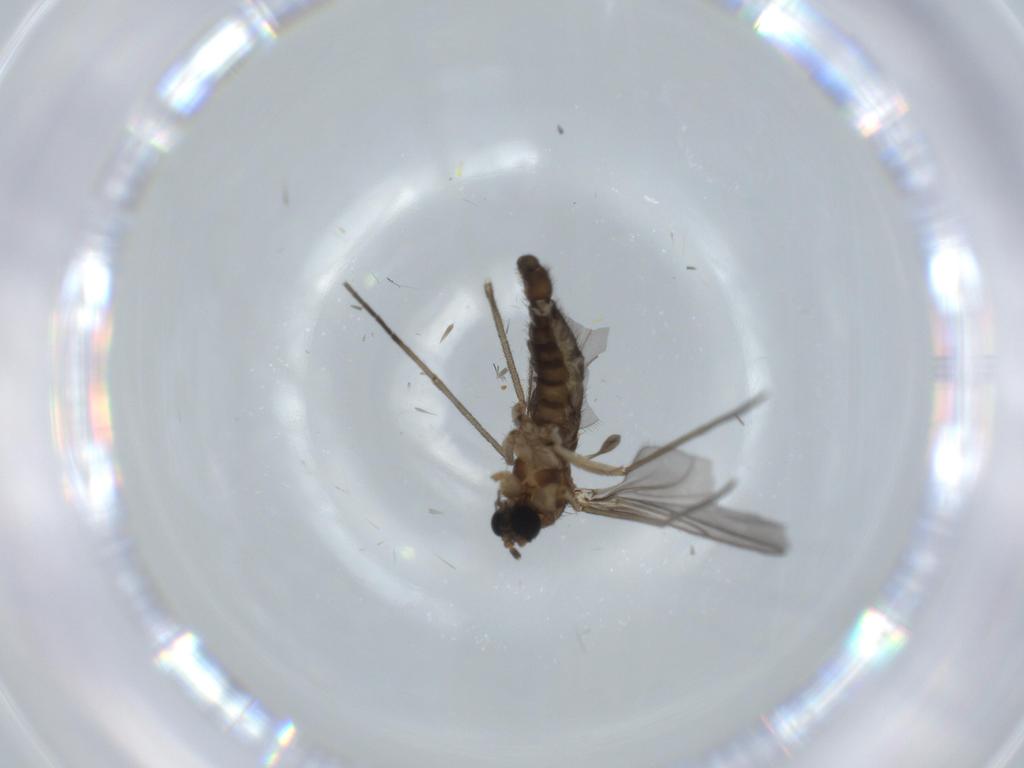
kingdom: Animalia
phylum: Arthropoda
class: Insecta
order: Diptera
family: Sciaridae
